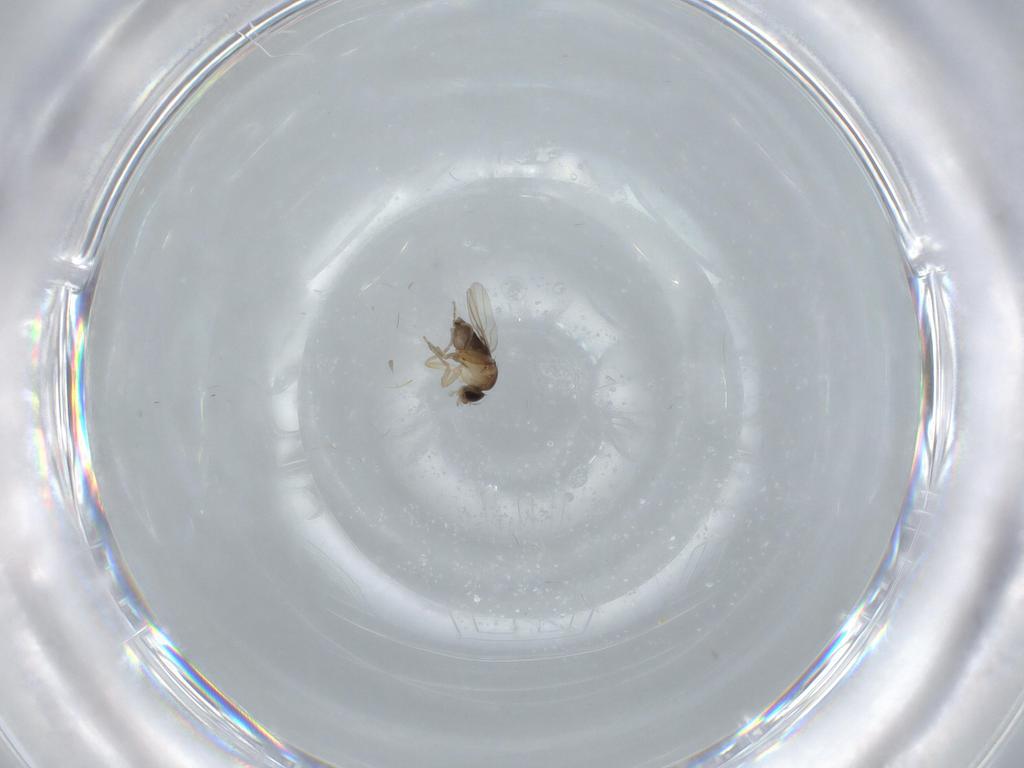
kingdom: Animalia
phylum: Arthropoda
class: Insecta
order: Diptera
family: Phoridae
